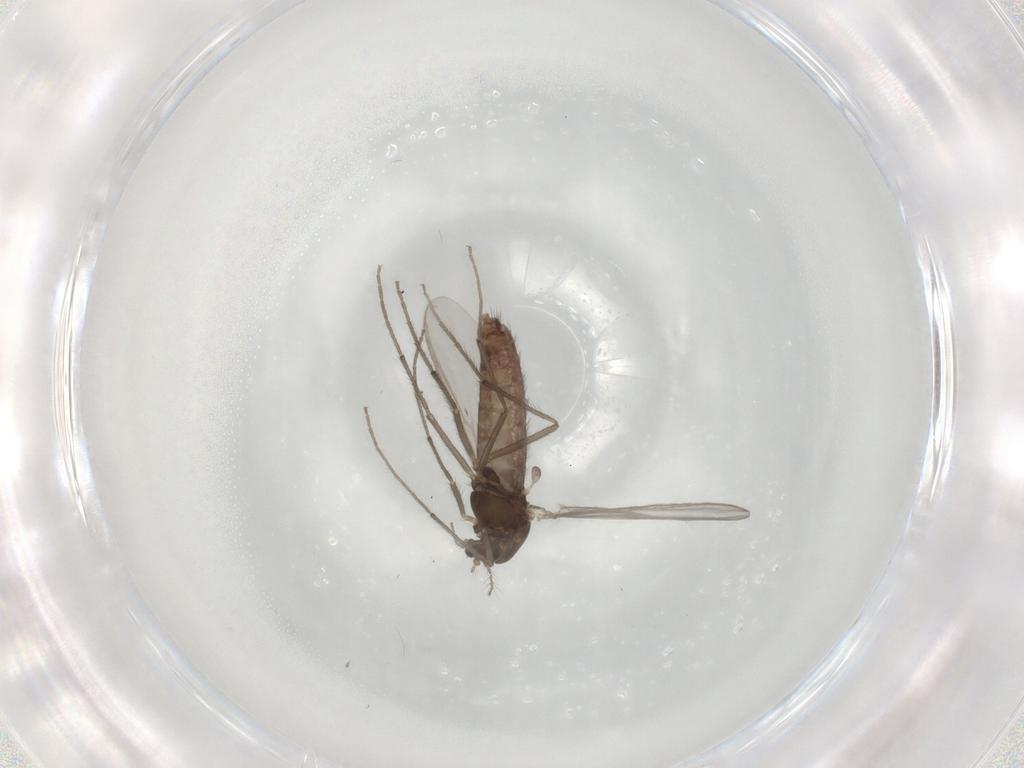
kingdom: Animalia
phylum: Arthropoda
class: Insecta
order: Diptera
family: Chironomidae
